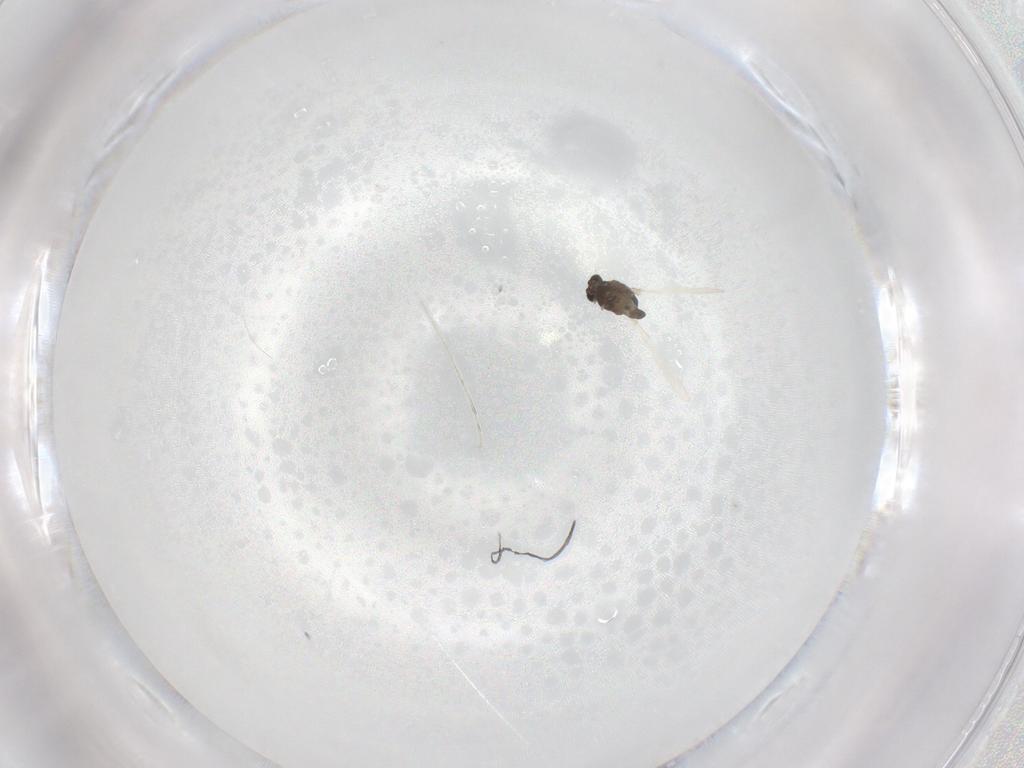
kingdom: Animalia
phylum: Arthropoda
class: Insecta
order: Diptera
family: Chironomidae
